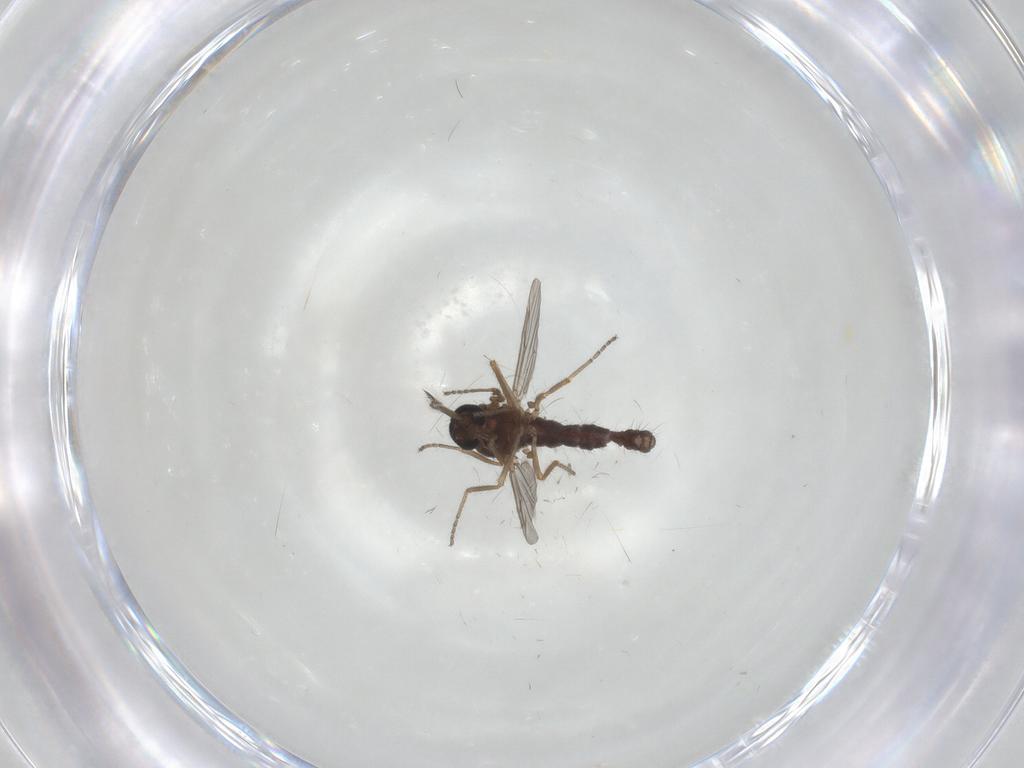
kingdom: Animalia
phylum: Arthropoda
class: Insecta
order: Diptera
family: Ceratopogonidae
